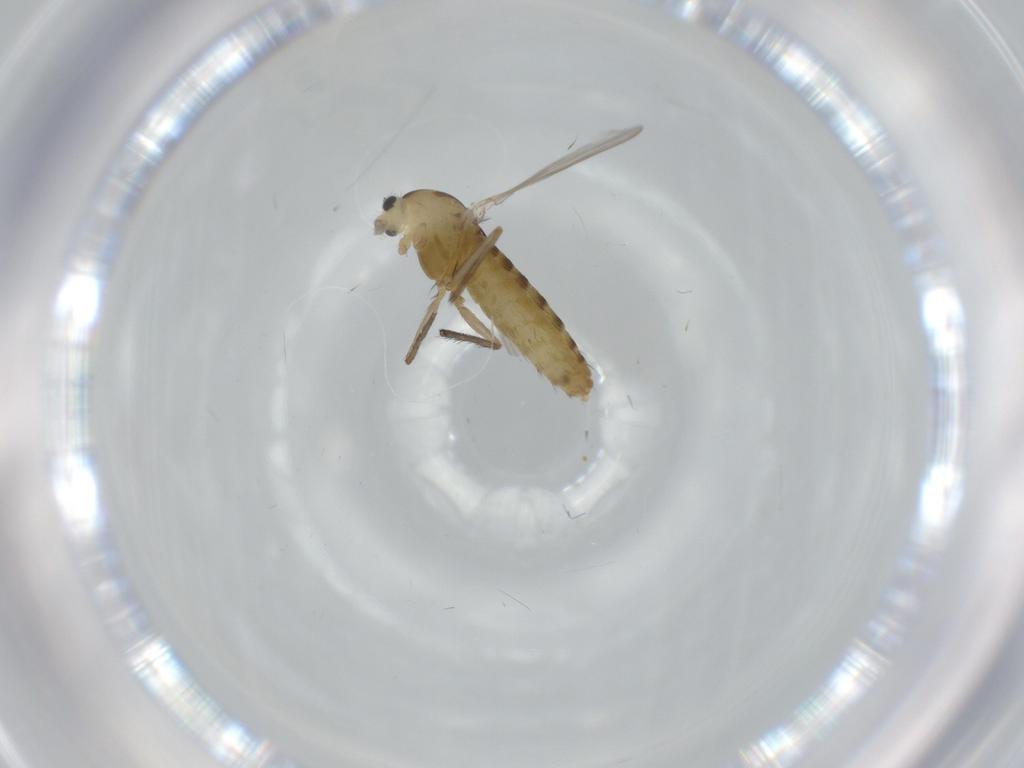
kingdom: Animalia
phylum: Arthropoda
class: Insecta
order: Diptera
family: Chironomidae
